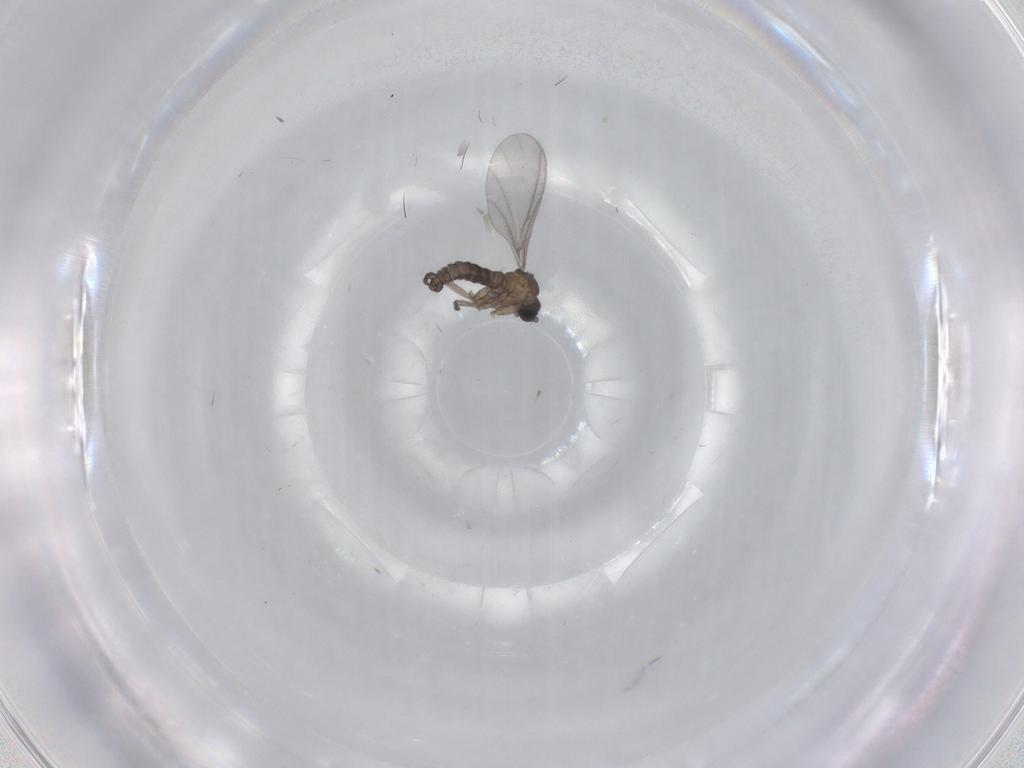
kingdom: Animalia
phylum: Arthropoda
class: Insecta
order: Diptera
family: Sciaridae
